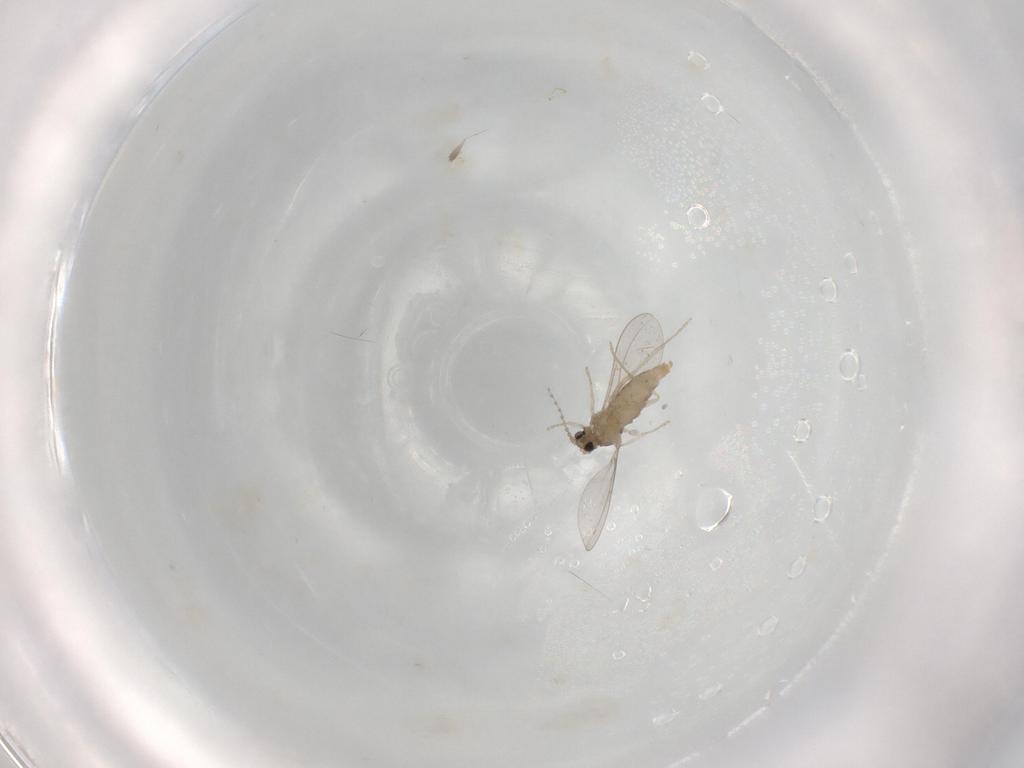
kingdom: Animalia
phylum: Arthropoda
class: Insecta
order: Diptera
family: Cecidomyiidae
